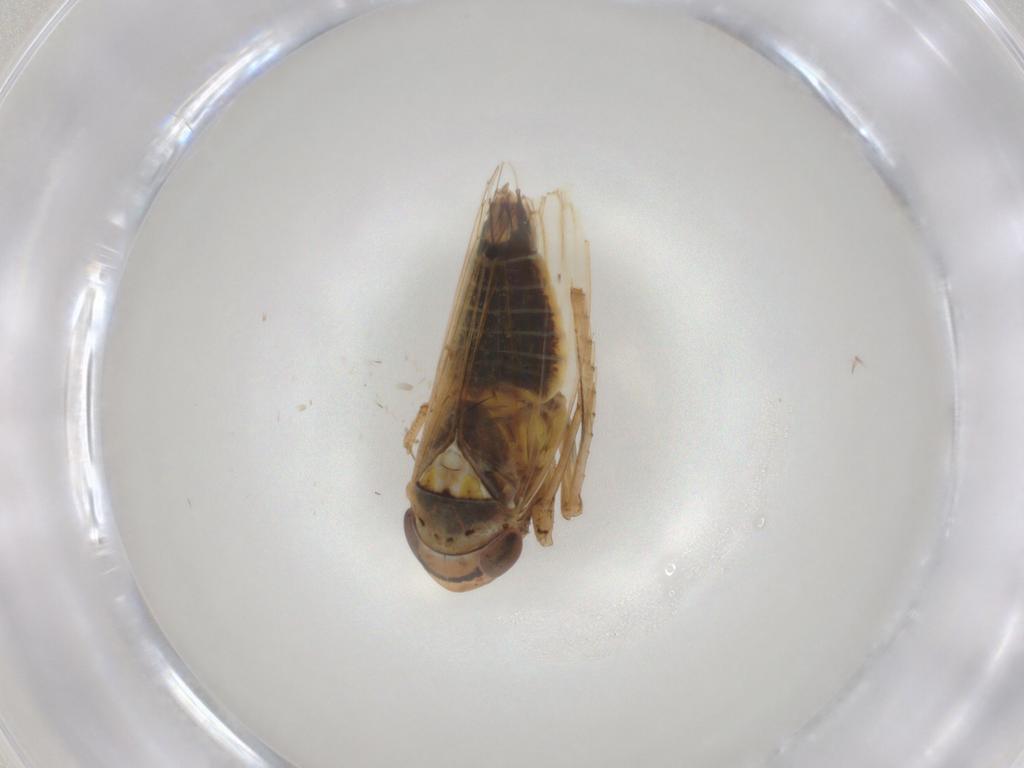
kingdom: Animalia
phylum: Arthropoda
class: Insecta
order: Hemiptera
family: Cicadellidae
